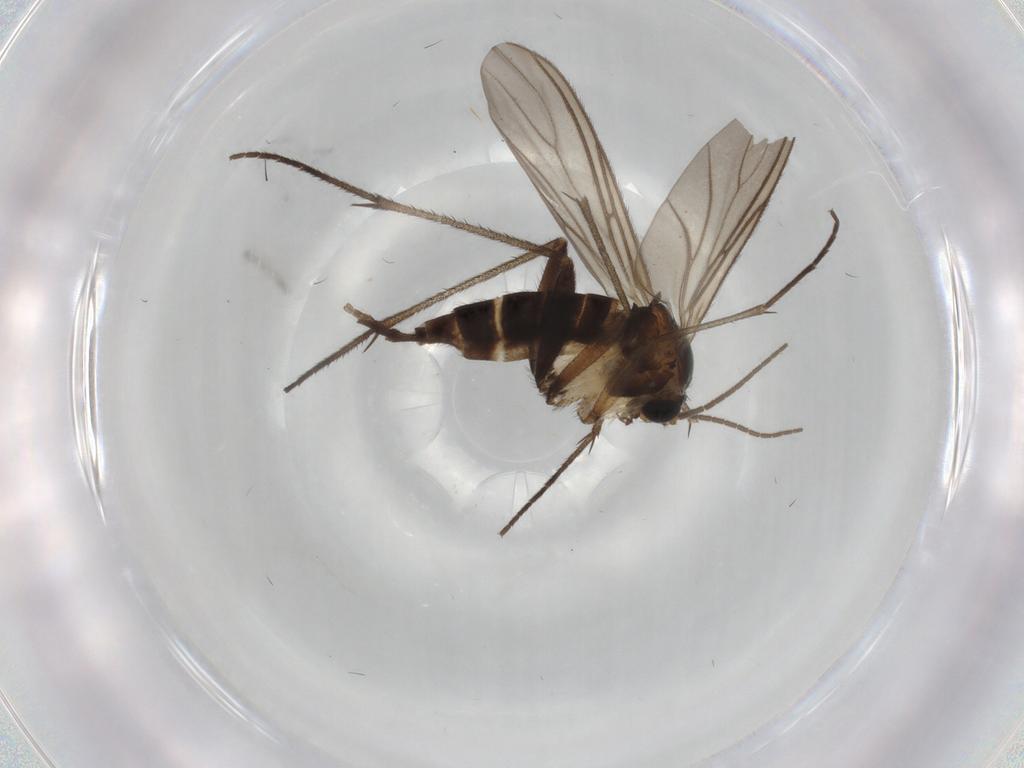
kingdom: Animalia
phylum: Arthropoda
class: Insecta
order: Diptera
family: Sciaridae
